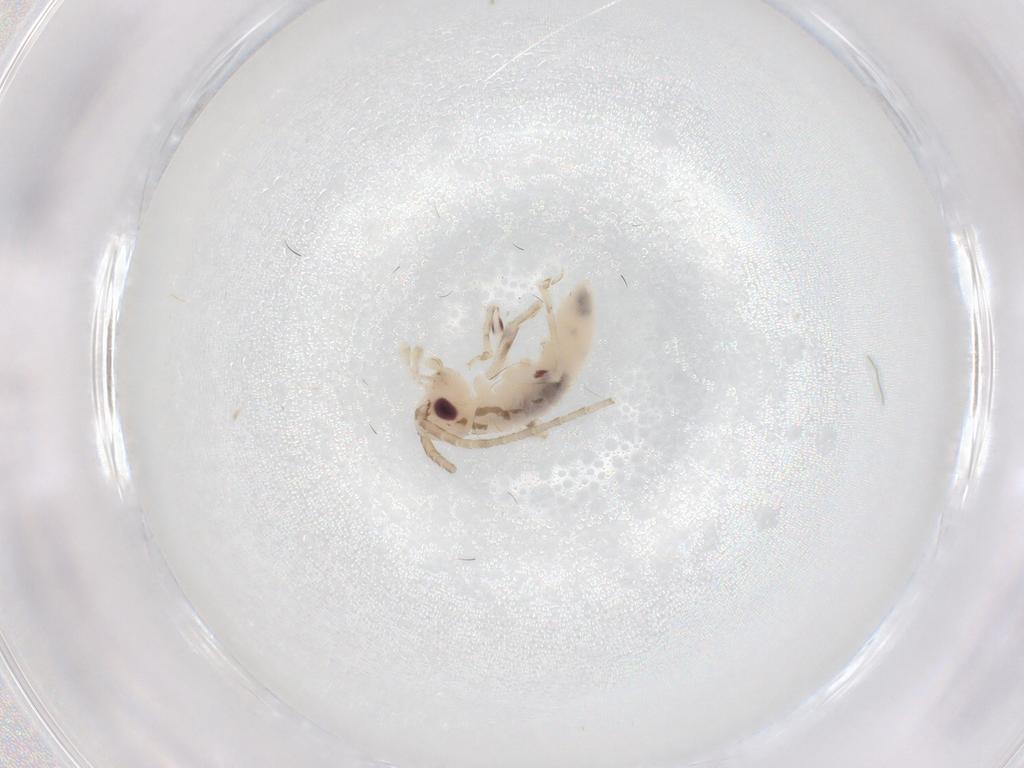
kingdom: Animalia
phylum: Arthropoda
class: Insecta
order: Orthoptera
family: Trigonidiidae
